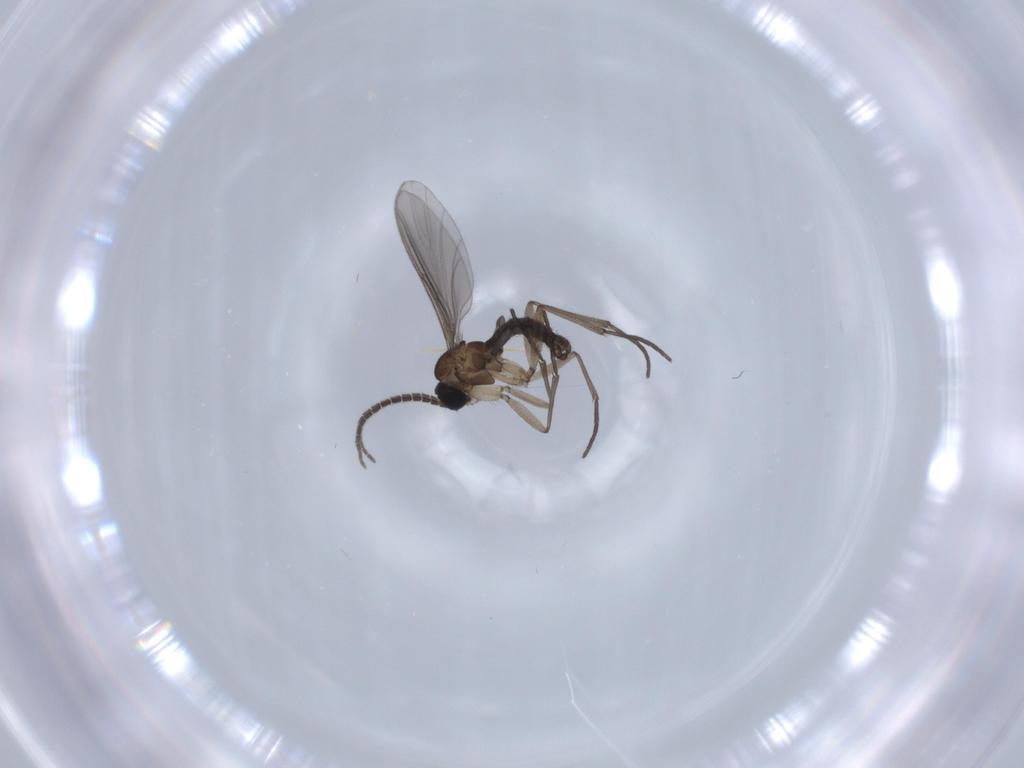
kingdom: Animalia
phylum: Arthropoda
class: Insecta
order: Diptera
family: Sciaridae
